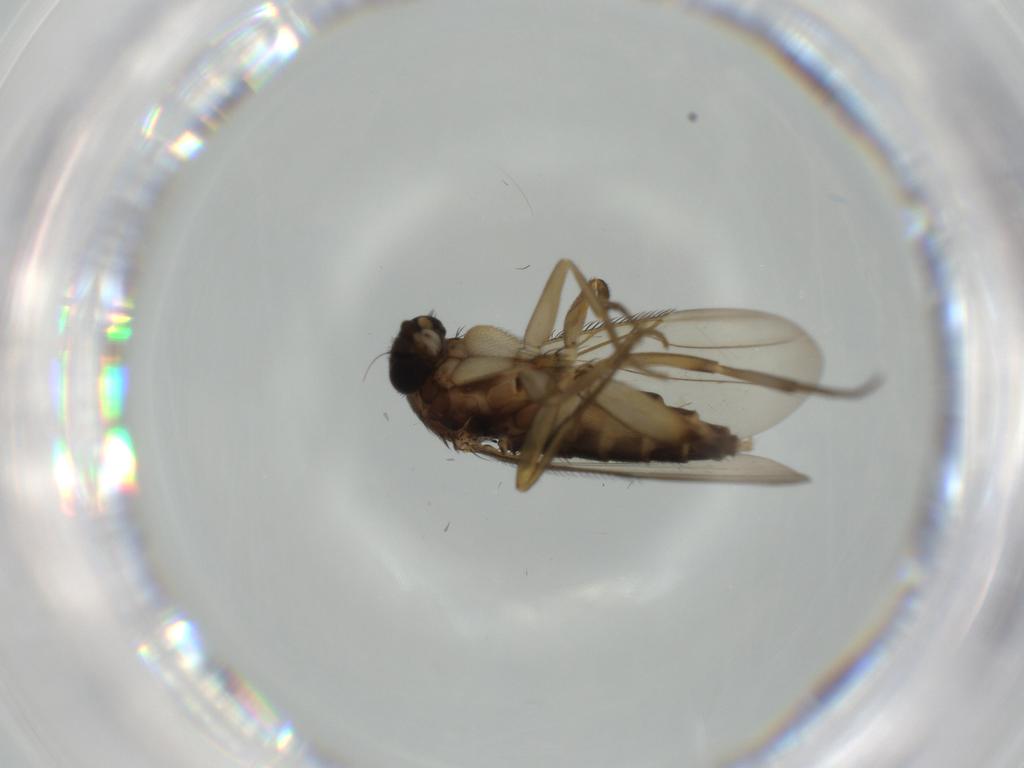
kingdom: Animalia
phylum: Arthropoda
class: Insecta
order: Diptera
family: Phoridae
